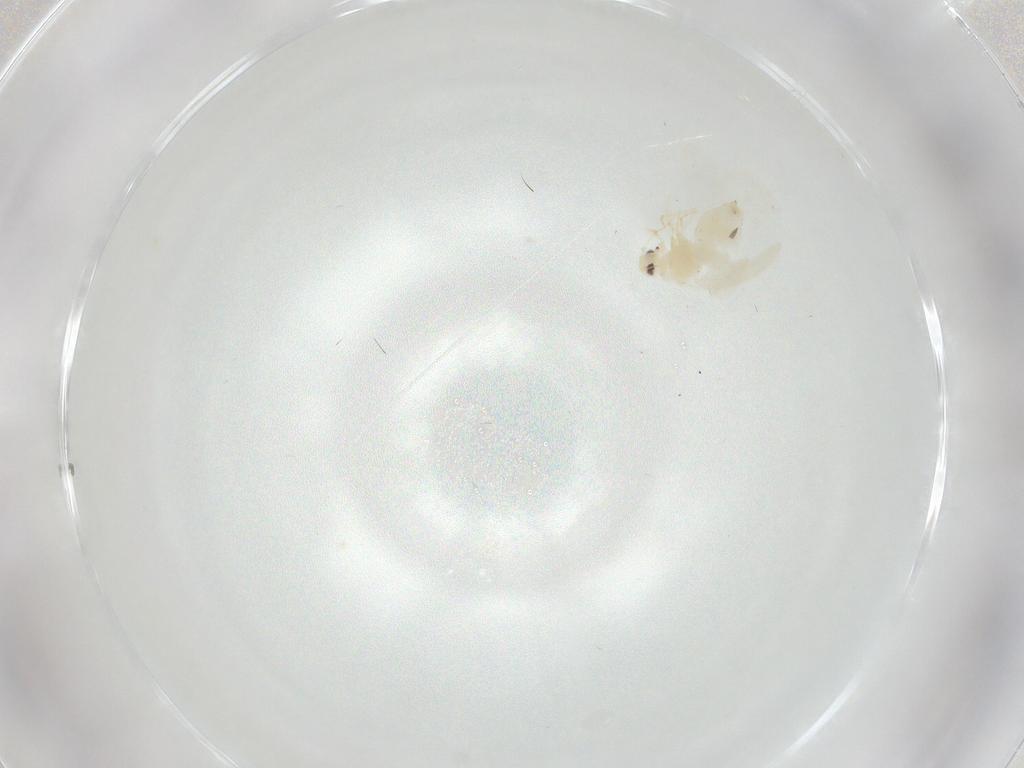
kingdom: Animalia
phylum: Arthropoda
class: Insecta
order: Hemiptera
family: Aleyrodidae
